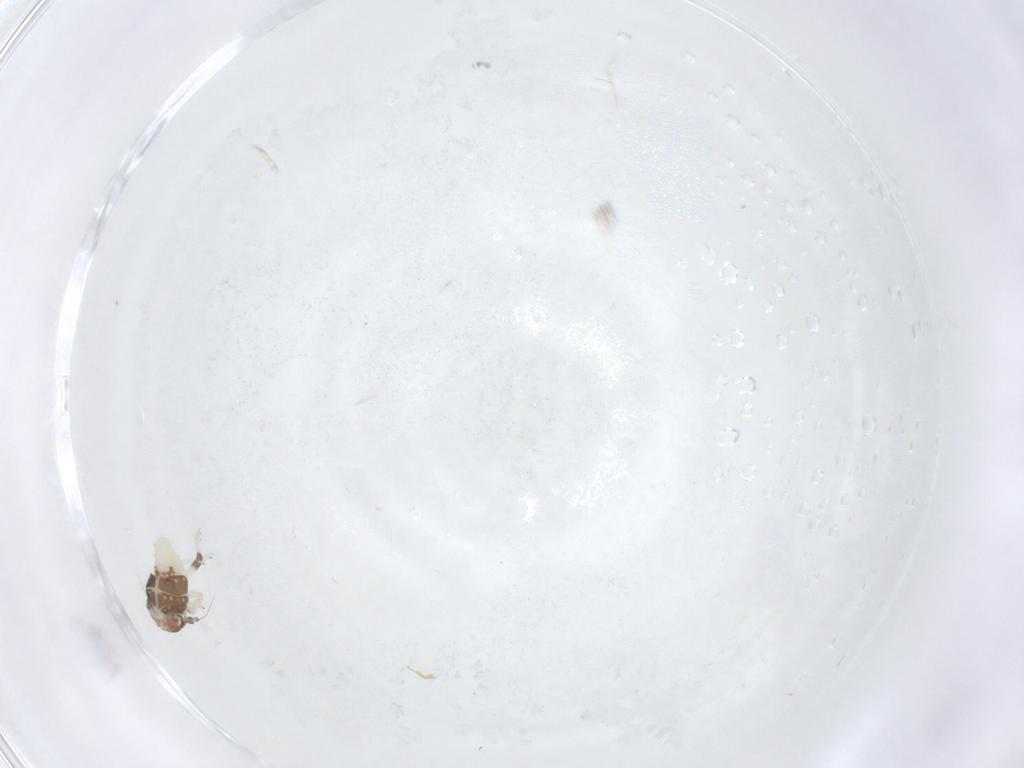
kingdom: Animalia
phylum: Arthropoda
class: Insecta
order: Hemiptera
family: Nogodinidae
